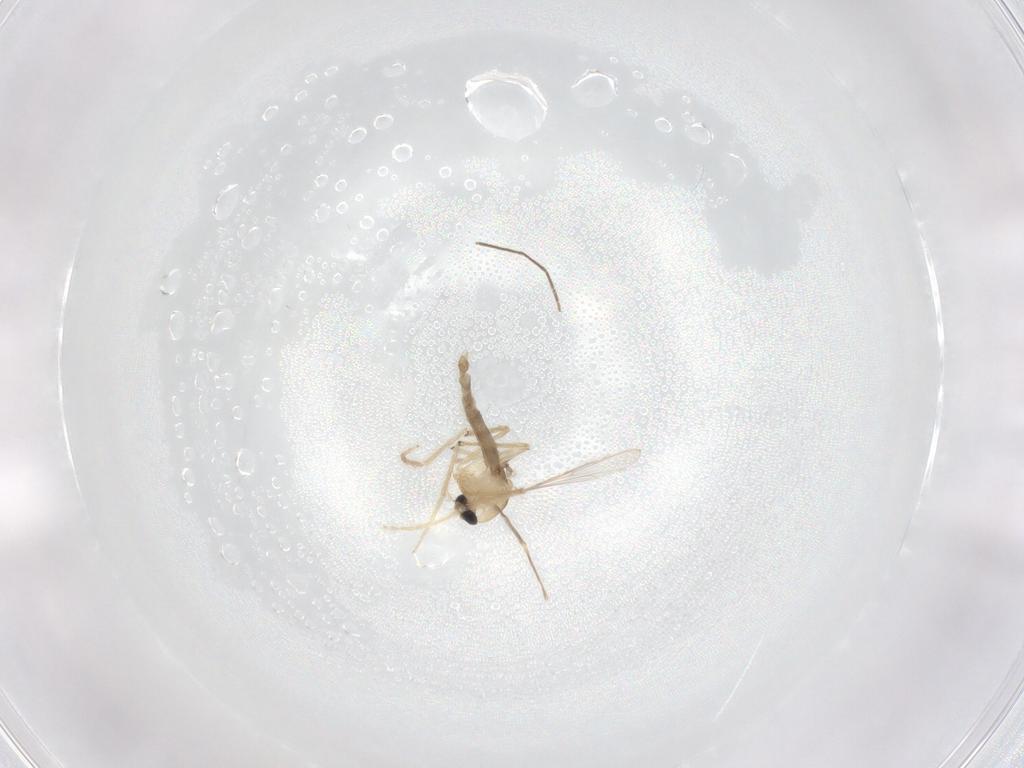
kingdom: Animalia
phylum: Arthropoda
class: Insecta
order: Diptera
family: Chironomidae
